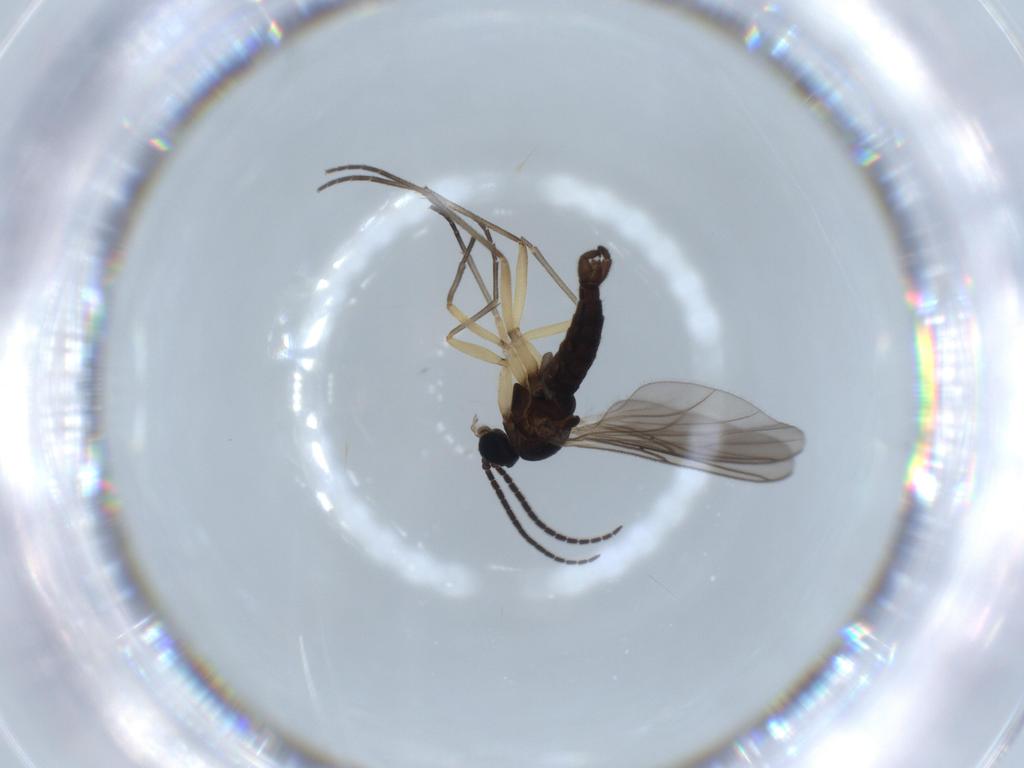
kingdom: Animalia
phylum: Arthropoda
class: Insecta
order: Diptera
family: Sciaridae
